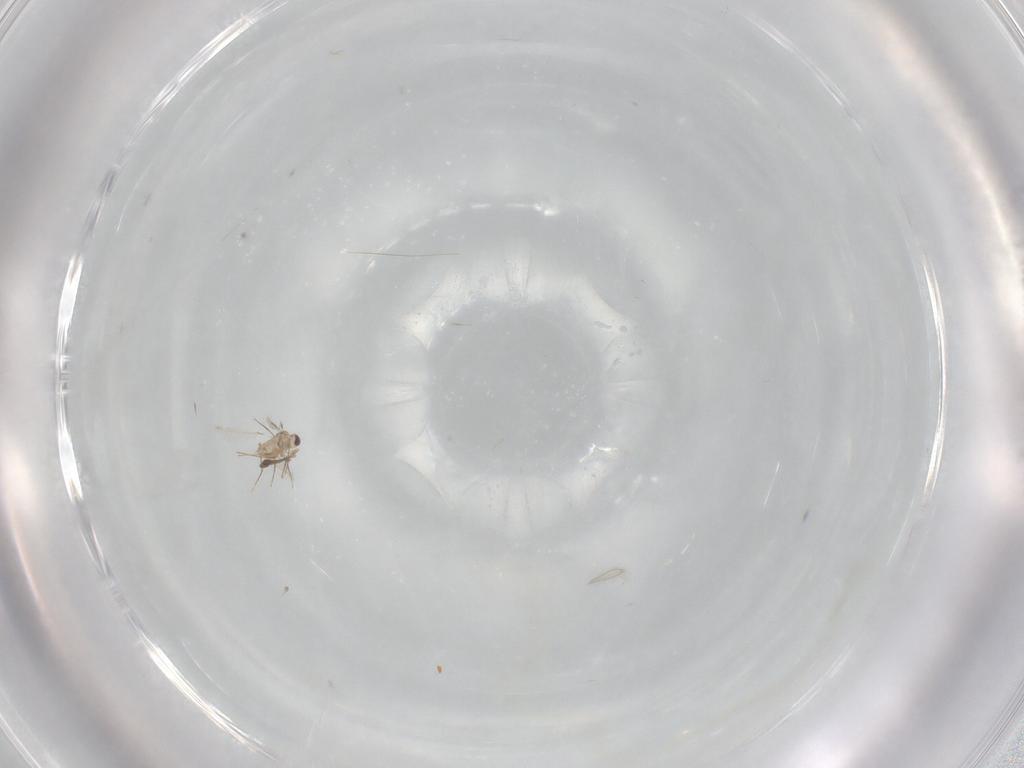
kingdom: Animalia
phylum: Arthropoda
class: Insecta
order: Hymenoptera
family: Mymaridae
